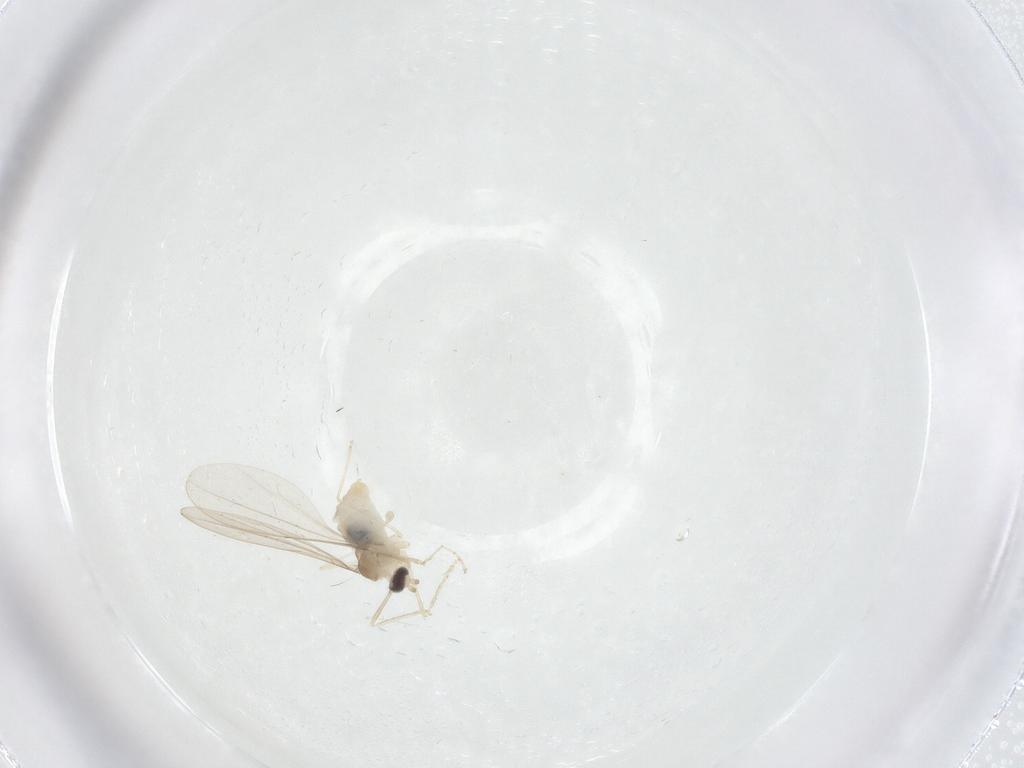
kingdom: Animalia
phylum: Arthropoda
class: Insecta
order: Diptera
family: Cecidomyiidae
